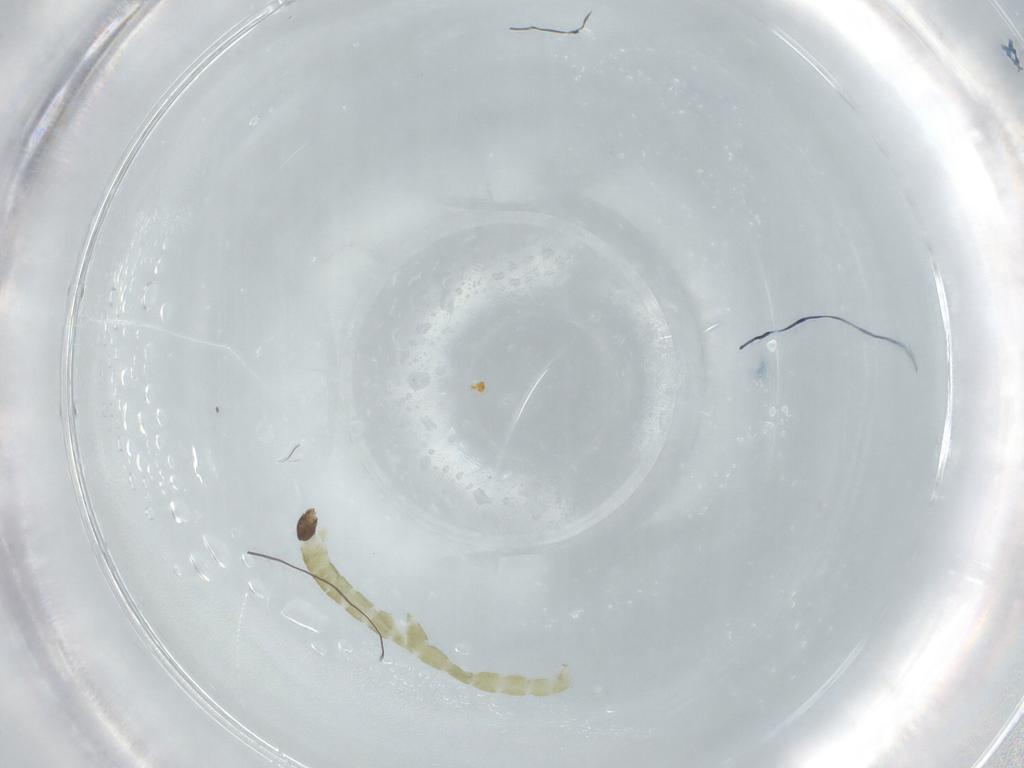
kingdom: Animalia
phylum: Arthropoda
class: Insecta
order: Diptera
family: Chironomidae
